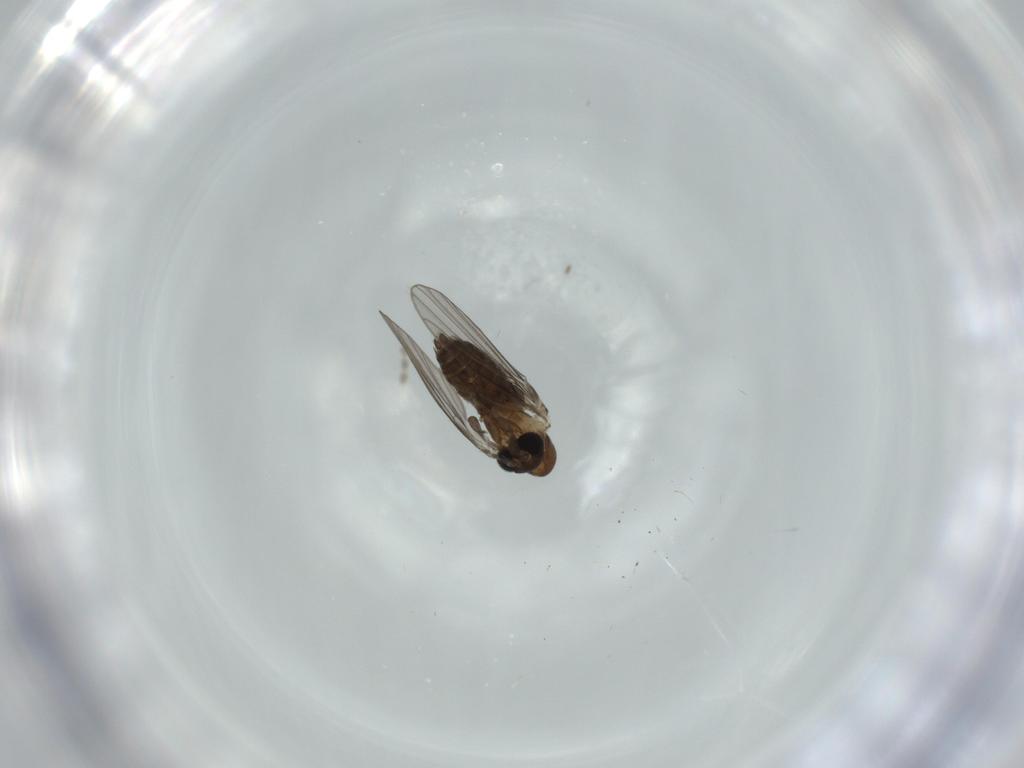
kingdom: Animalia
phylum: Arthropoda
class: Insecta
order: Diptera
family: Psychodidae
